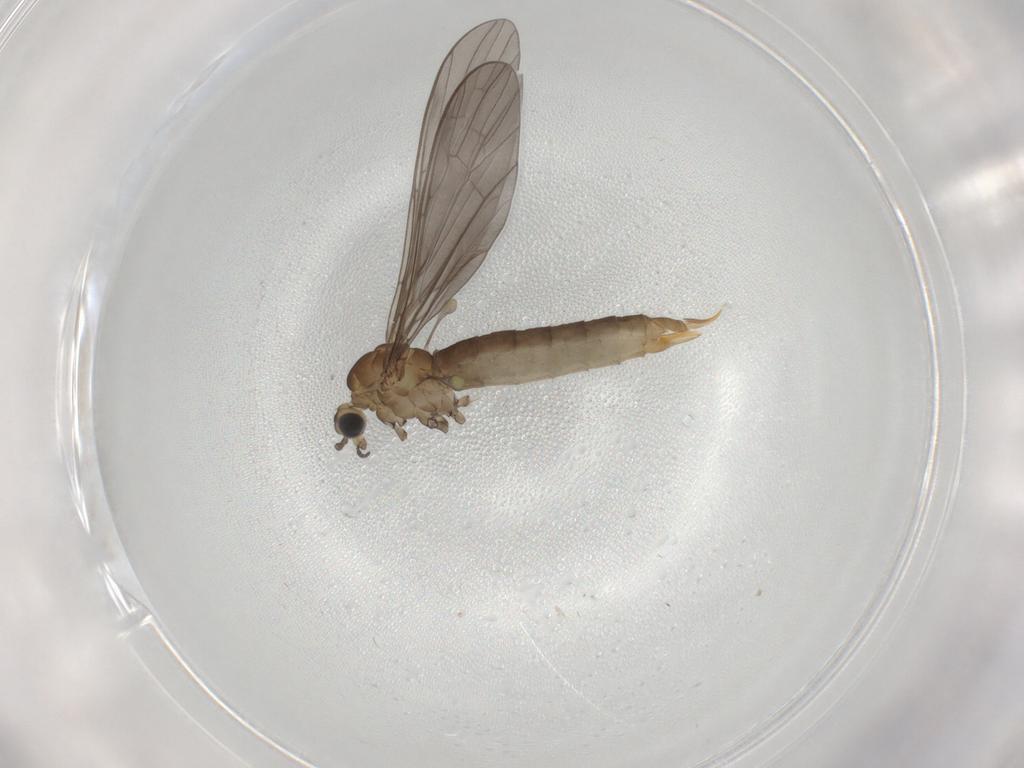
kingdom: Animalia
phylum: Arthropoda
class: Insecta
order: Diptera
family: Limoniidae
